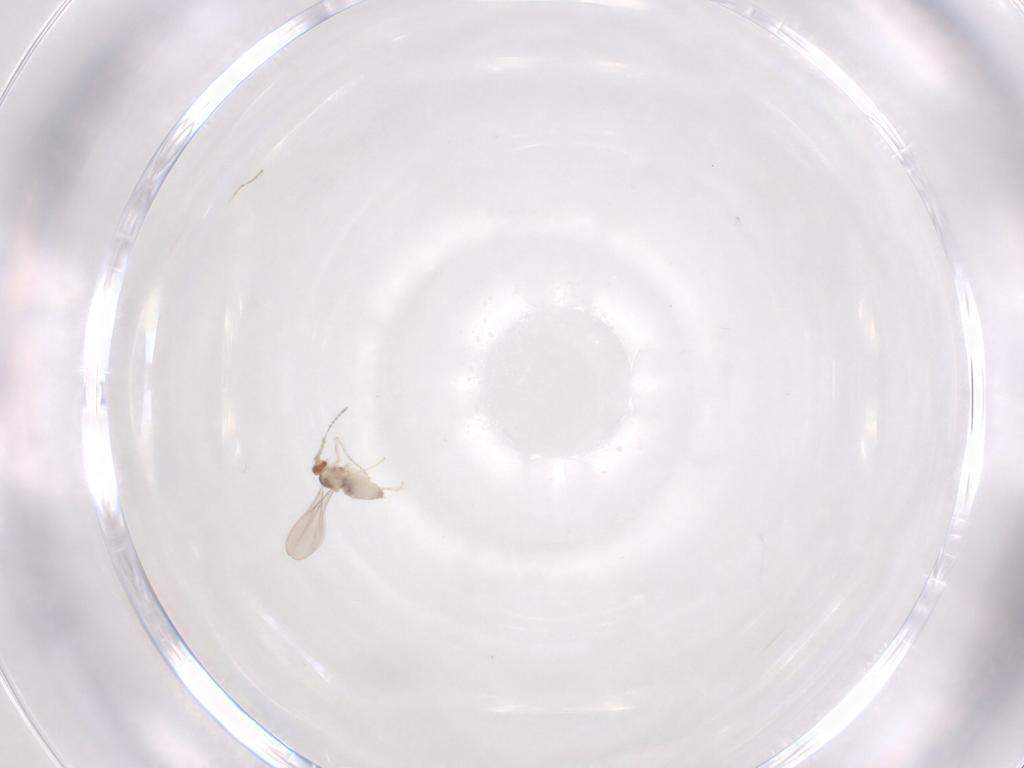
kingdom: Animalia
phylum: Arthropoda
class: Insecta
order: Diptera
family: Cecidomyiidae
